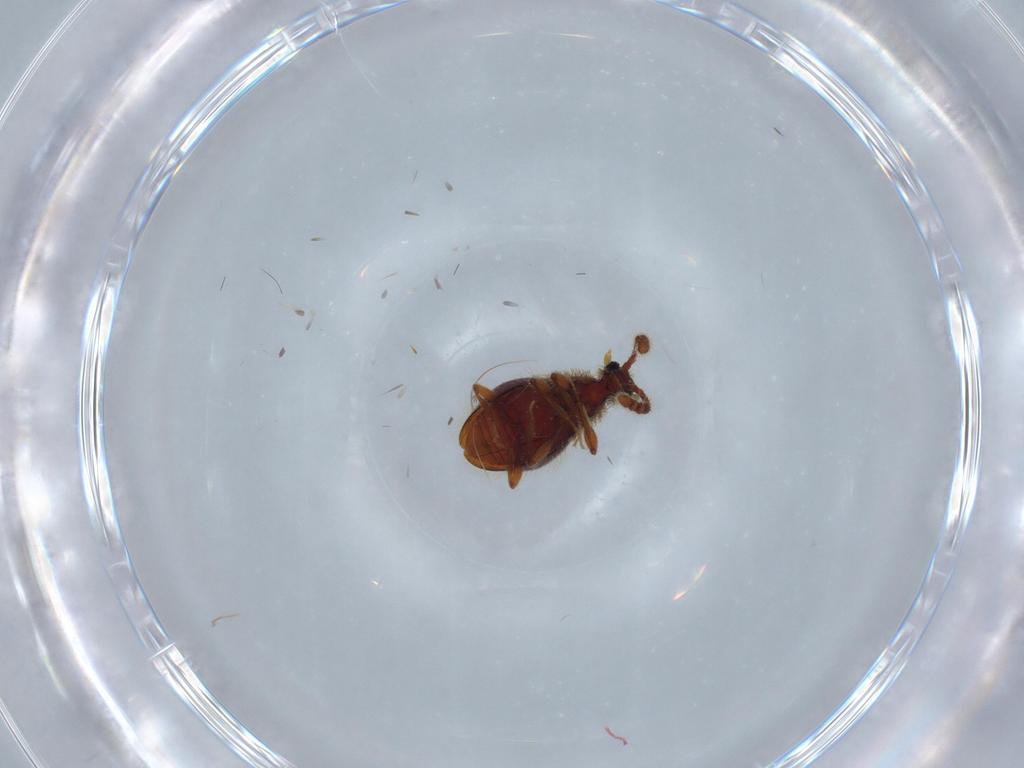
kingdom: Animalia
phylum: Arthropoda
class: Insecta
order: Coleoptera
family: Staphylinidae
